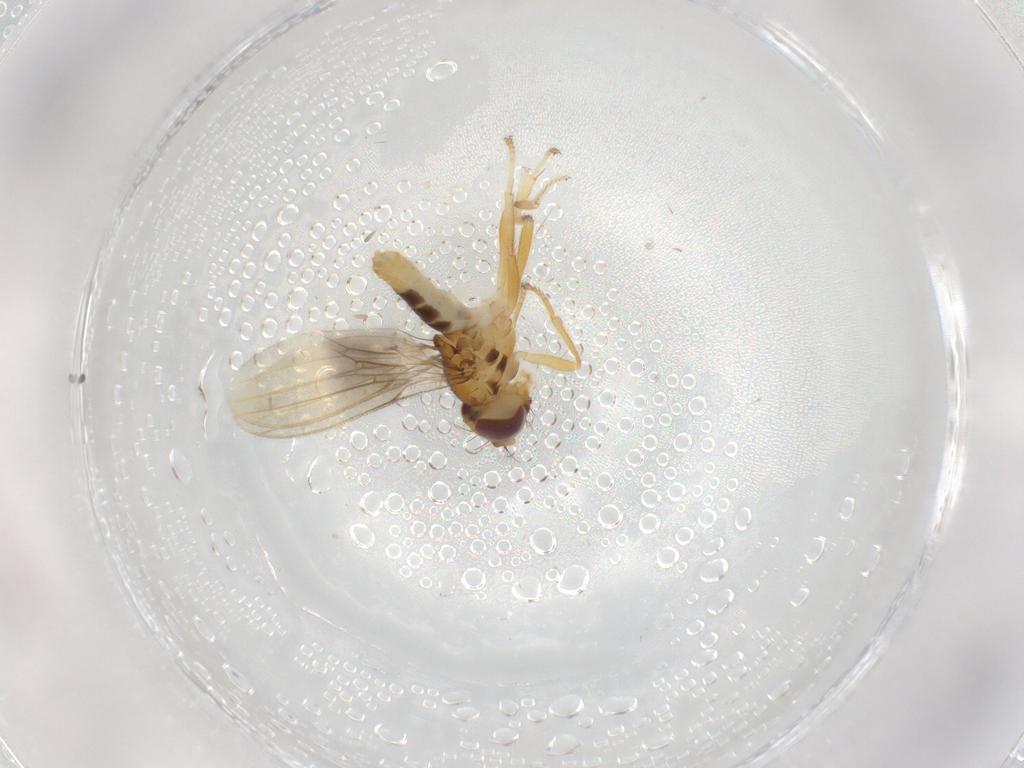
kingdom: Animalia
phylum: Arthropoda
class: Insecta
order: Diptera
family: Periscelididae
